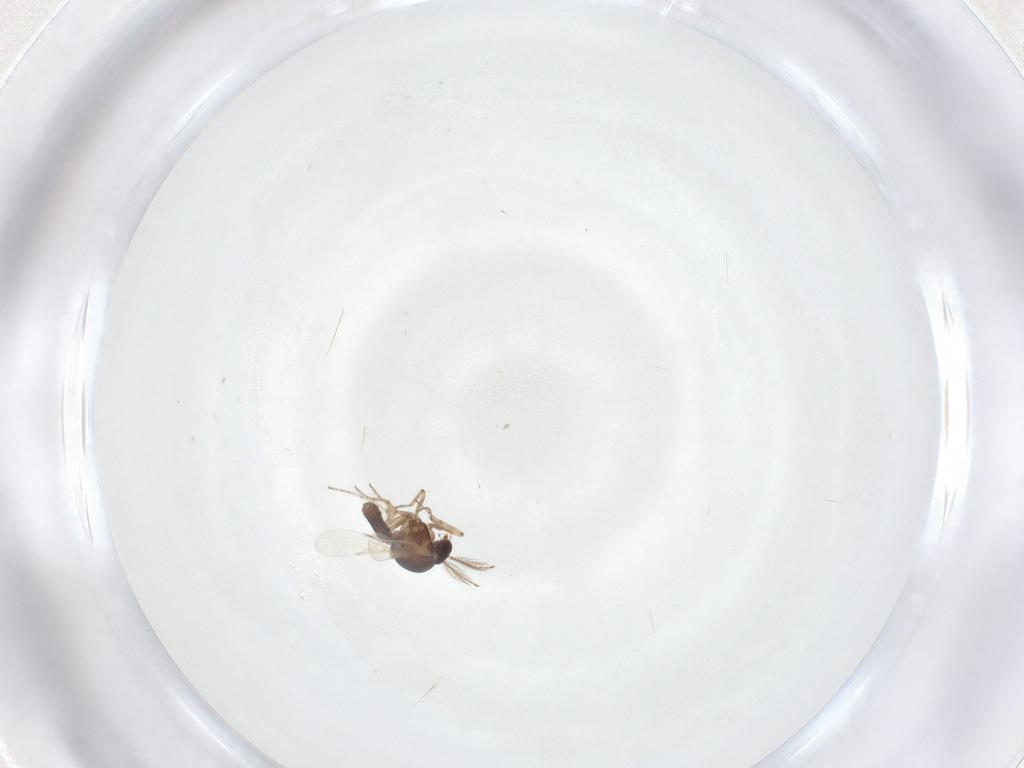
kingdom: Animalia
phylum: Arthropoda
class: Insecta
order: Diptera
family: Ceratopogonidae
